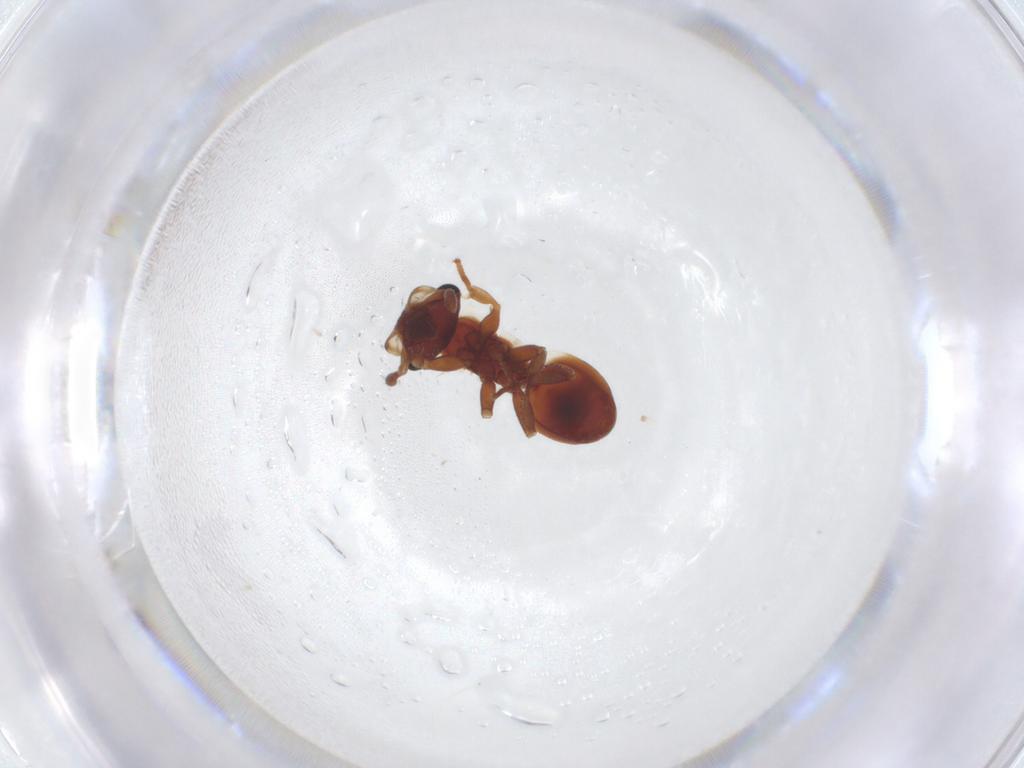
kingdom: Animalia
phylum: Arthropoda
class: Insecta
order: Hymenoptera
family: Formicidae
